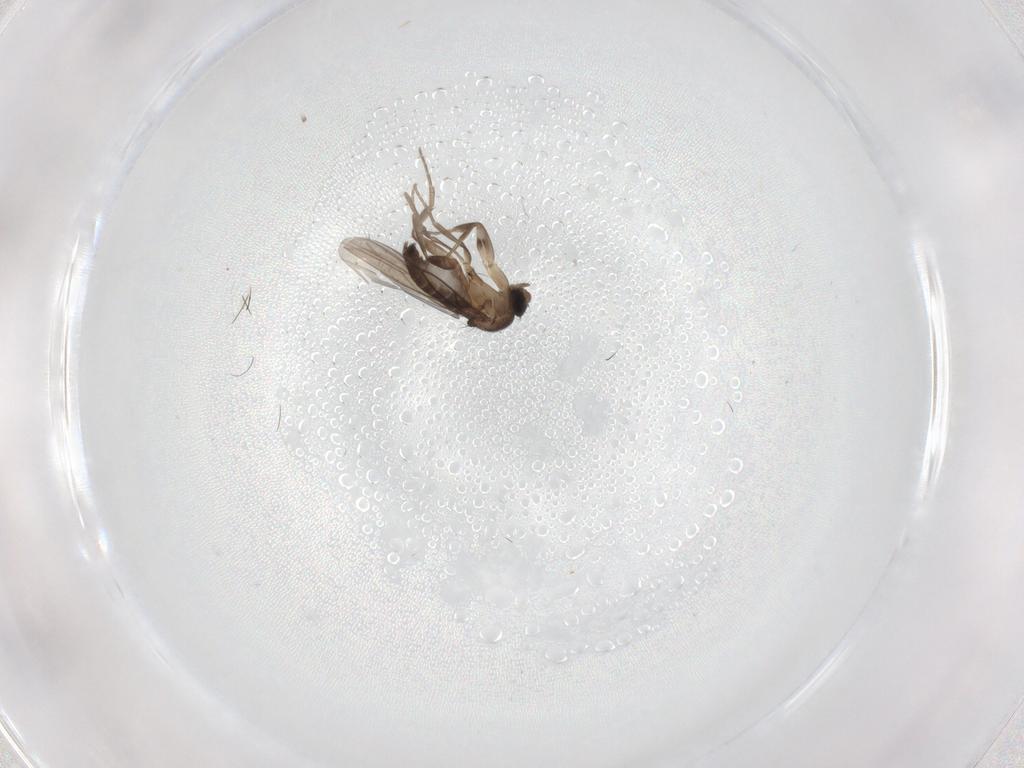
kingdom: Animalia
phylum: Arthropoda
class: Insecta
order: Diptera
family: Phoridae
